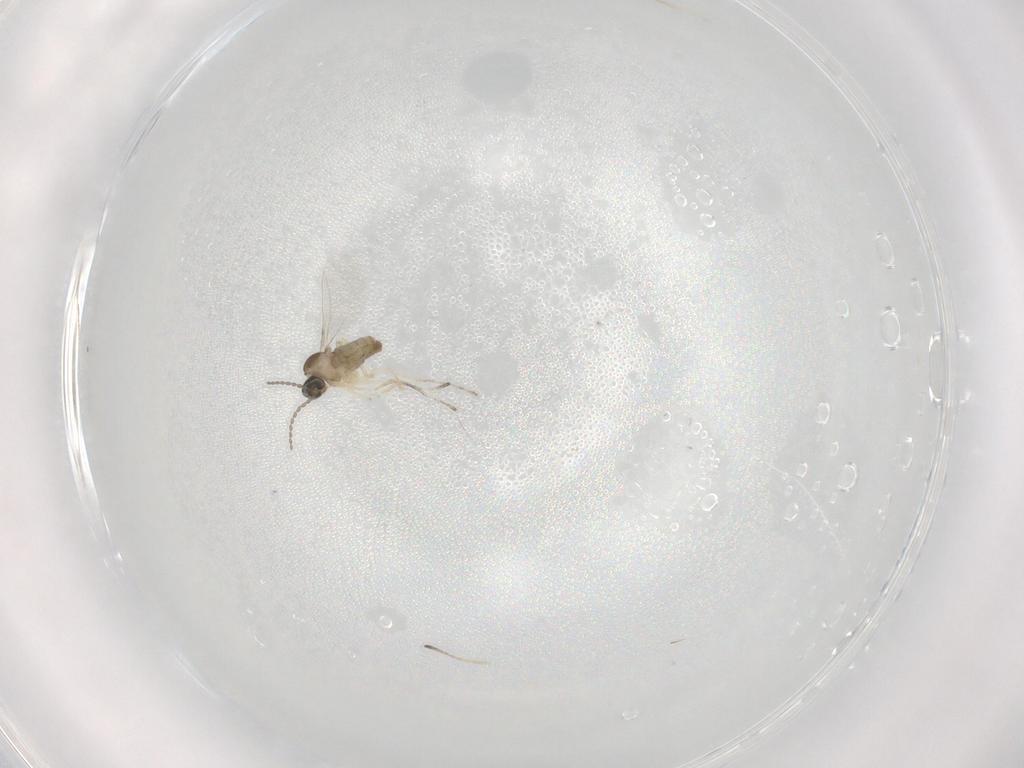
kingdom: Animalia
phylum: Arthropoda
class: Insecta
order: Diptera
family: Cecidomyiidae
